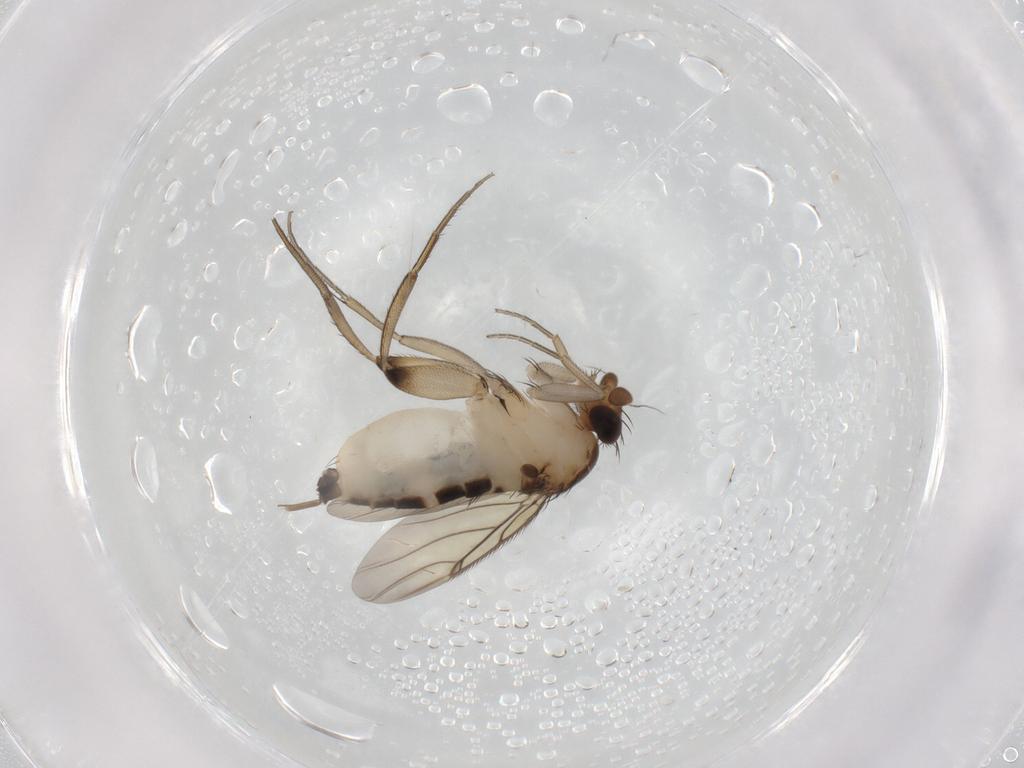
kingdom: Animalia
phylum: Arthropoda
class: Insecta
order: Diptera
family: Phoridae
